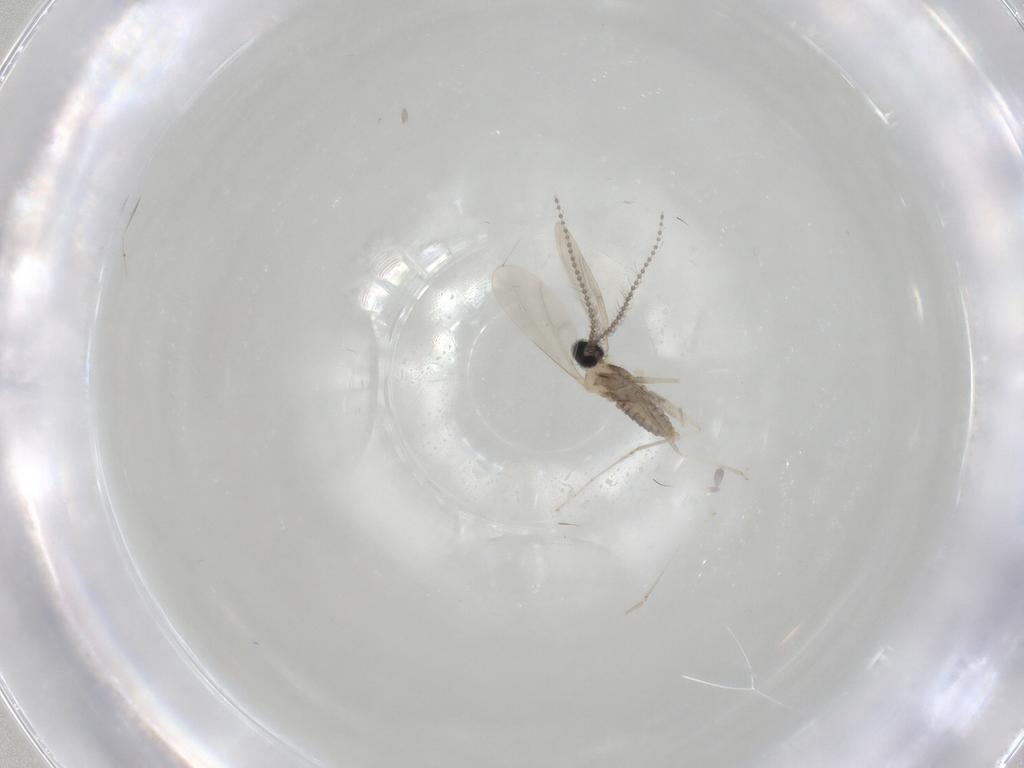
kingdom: Animalia
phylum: Arthropoda
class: Insecta
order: Diptera
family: Cecidomyiidae
